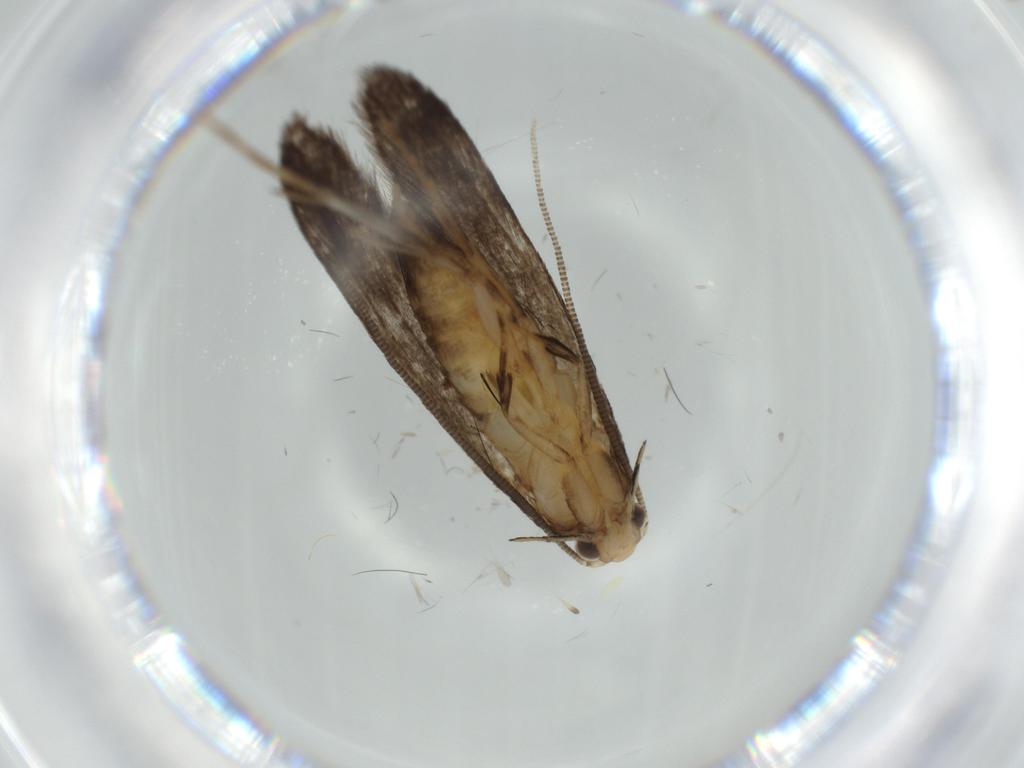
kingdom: Animalia
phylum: Arthropoda
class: Insecta
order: Lepidoptera
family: Tineidae
